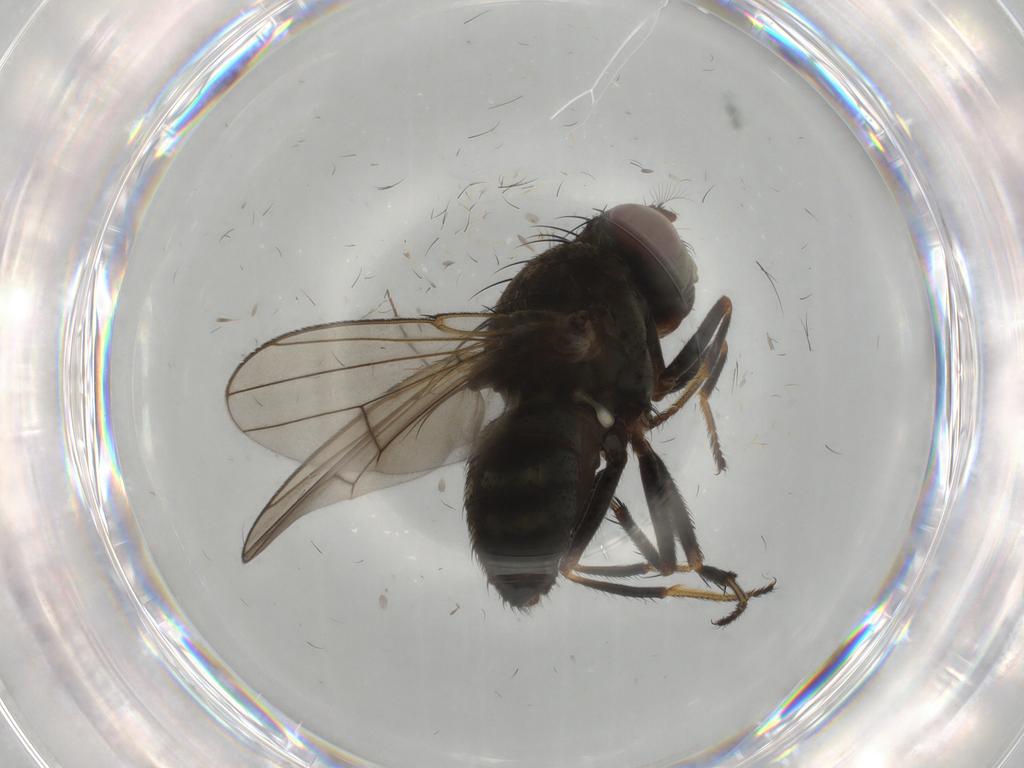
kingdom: Animalia
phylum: Arthropoda
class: Insecta
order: Diptera
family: Ephydridae
